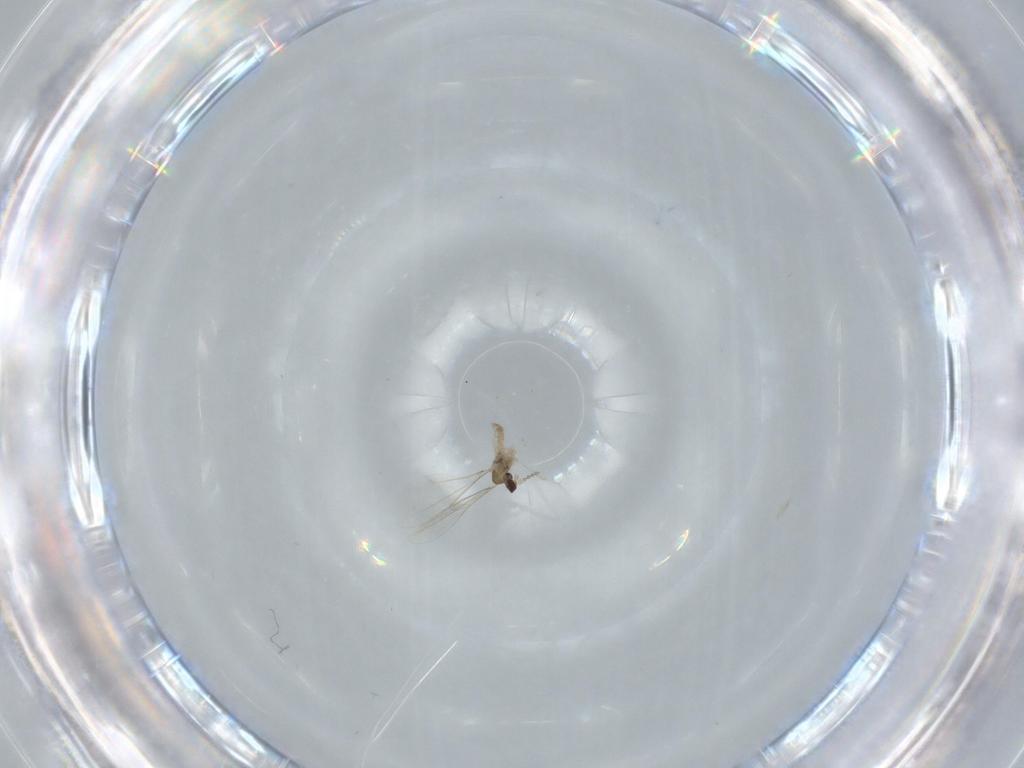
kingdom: Animalia
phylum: Arthropoda
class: Insecta
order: Diptera
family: Cecidomyiidae
